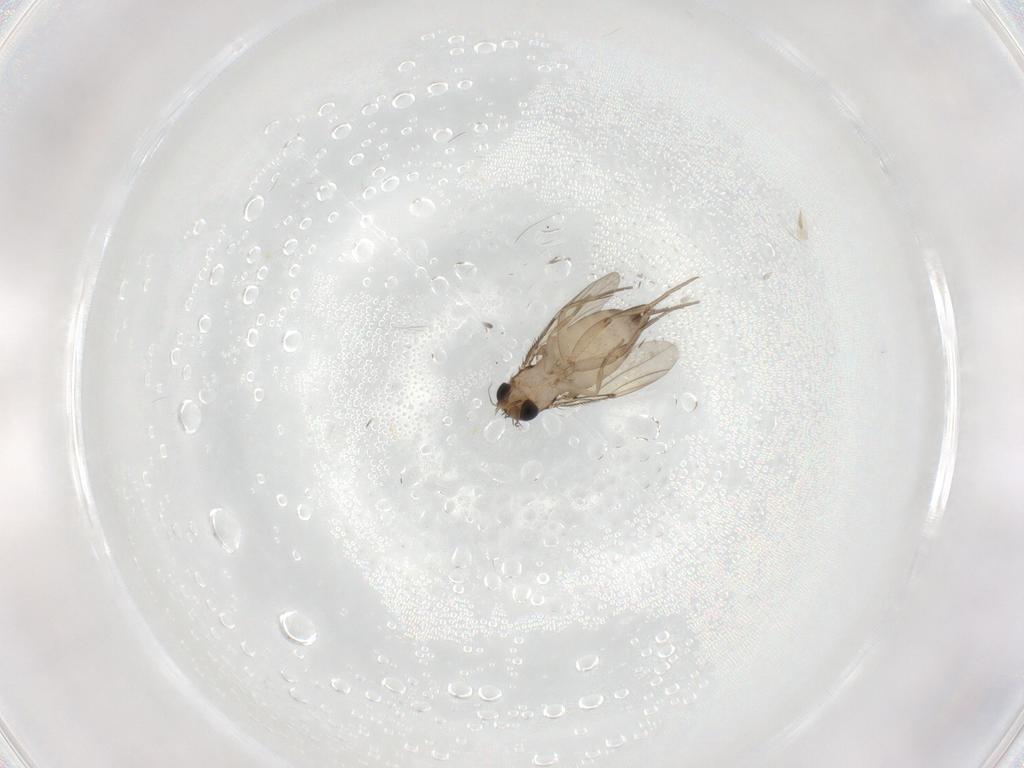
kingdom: Animalia
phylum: Arthropoda
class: Insecta
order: Diptera
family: Phoridae
